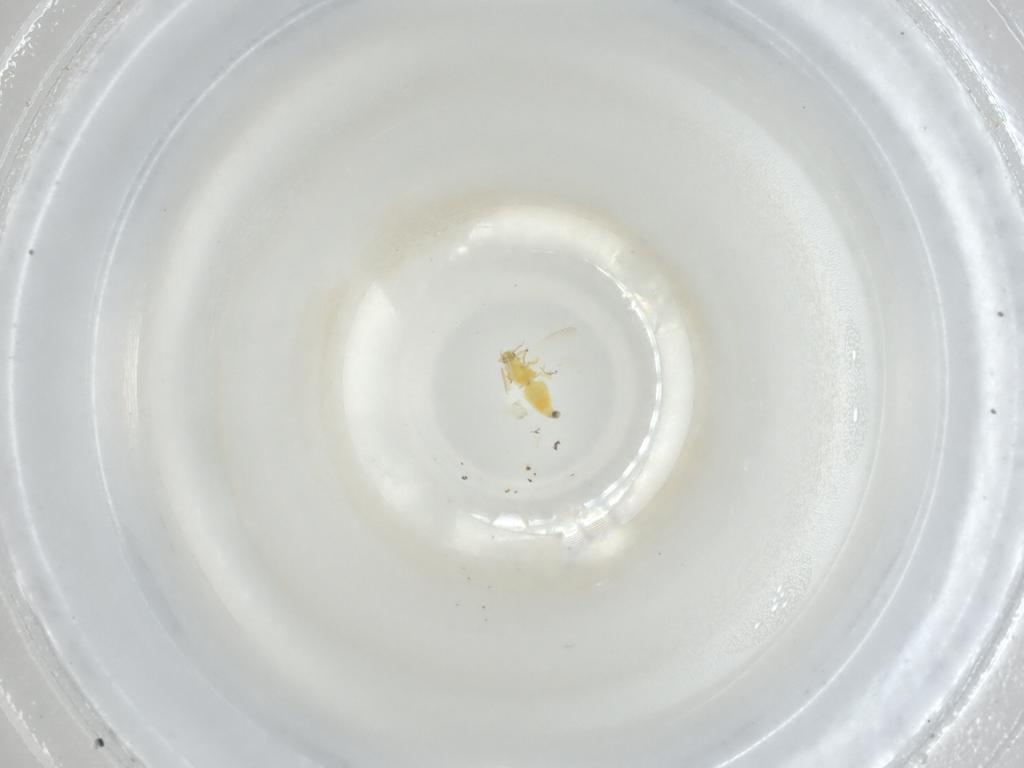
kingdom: Animalia
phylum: Arthropoda
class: Insecta
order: Hemiptera
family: Aleyrodidae
